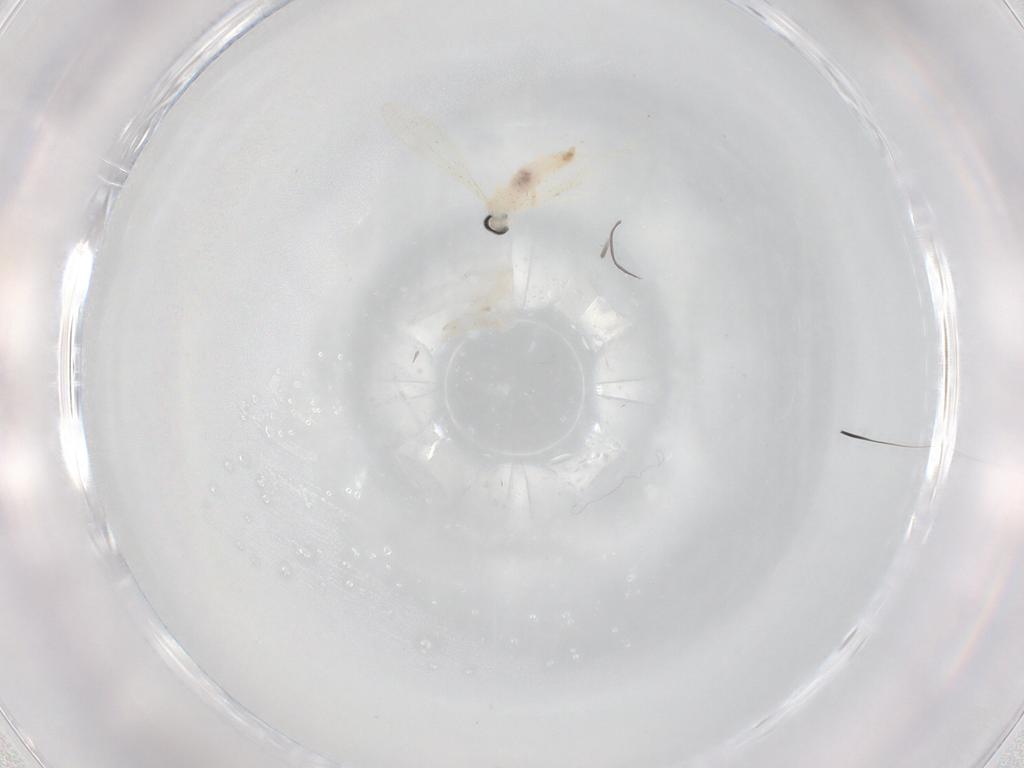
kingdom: Animalia
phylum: Arthropoda
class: Insecta
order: Diptera
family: Cecidomyiidae
